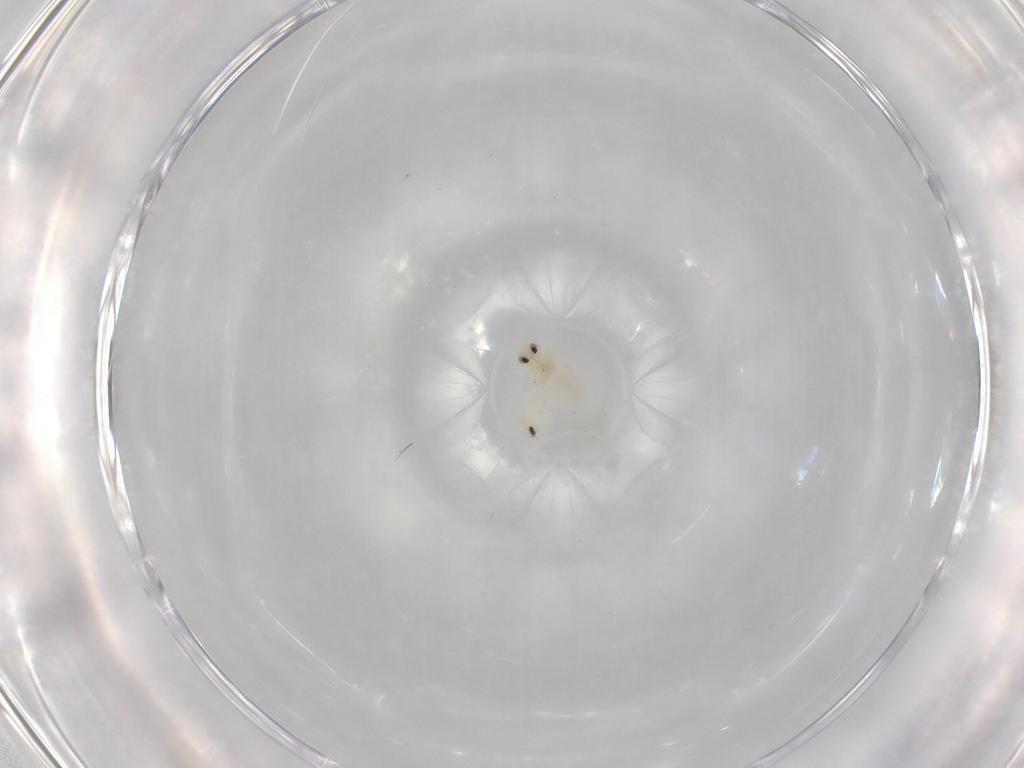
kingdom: Animalia
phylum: Arthropoda
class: Insecta
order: Hemiptera
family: Aleyrodidae
